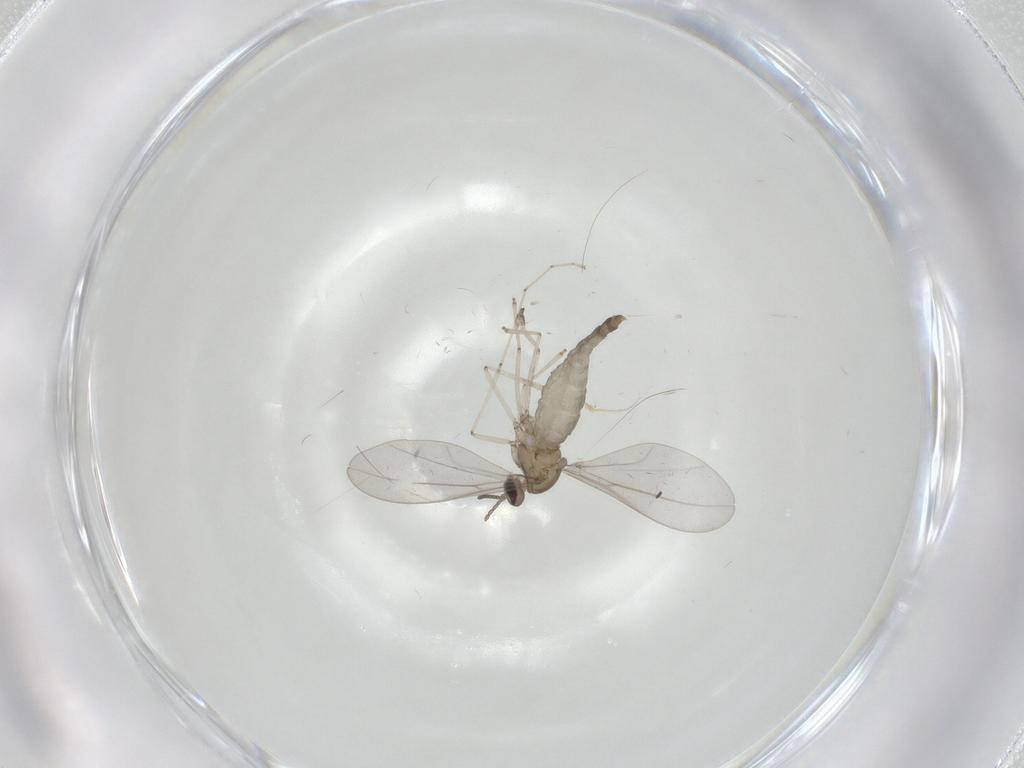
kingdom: Animalia
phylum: Arthropoda
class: Insecta
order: Diptera
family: Cecidomyiidae
